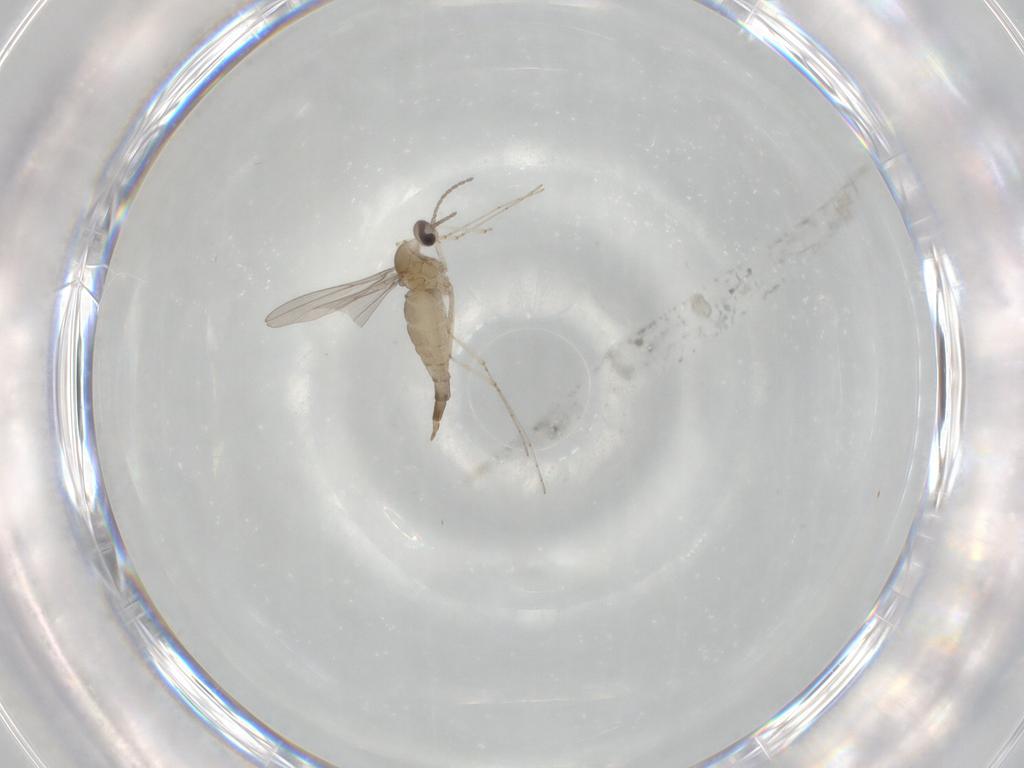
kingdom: Animalia
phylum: Arthropoda
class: Insecta
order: Diptera
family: Cecidomyiidae
